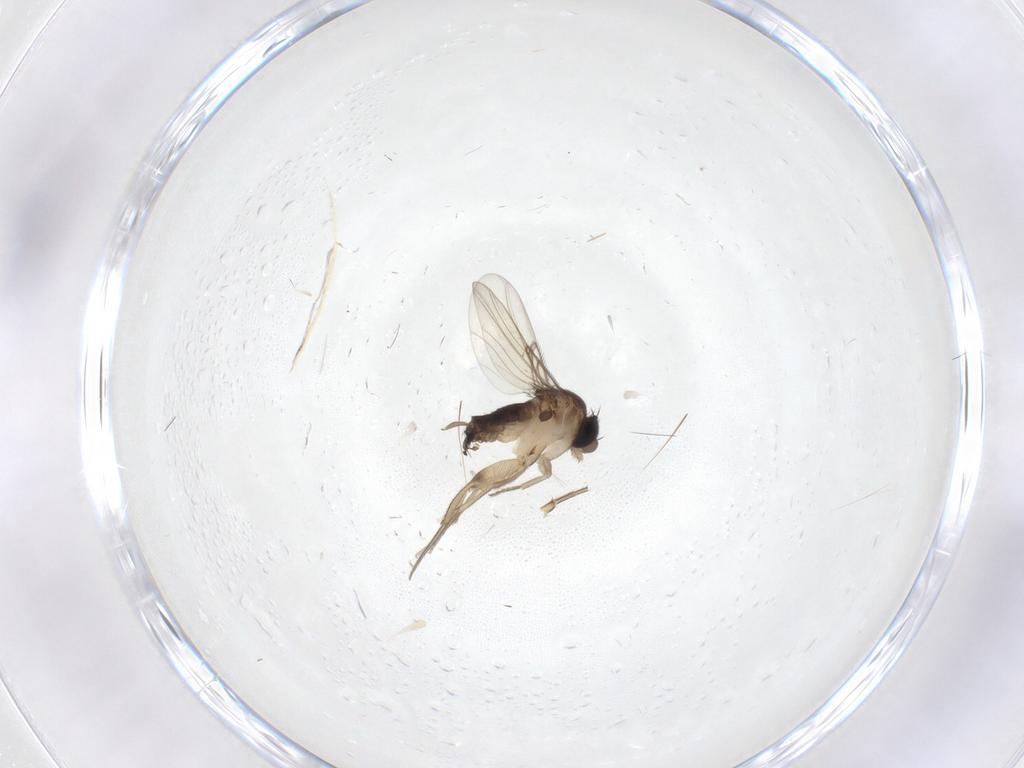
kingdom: Animalia
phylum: Arthropoda
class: Insecta
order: Diptera
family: Phoridae
